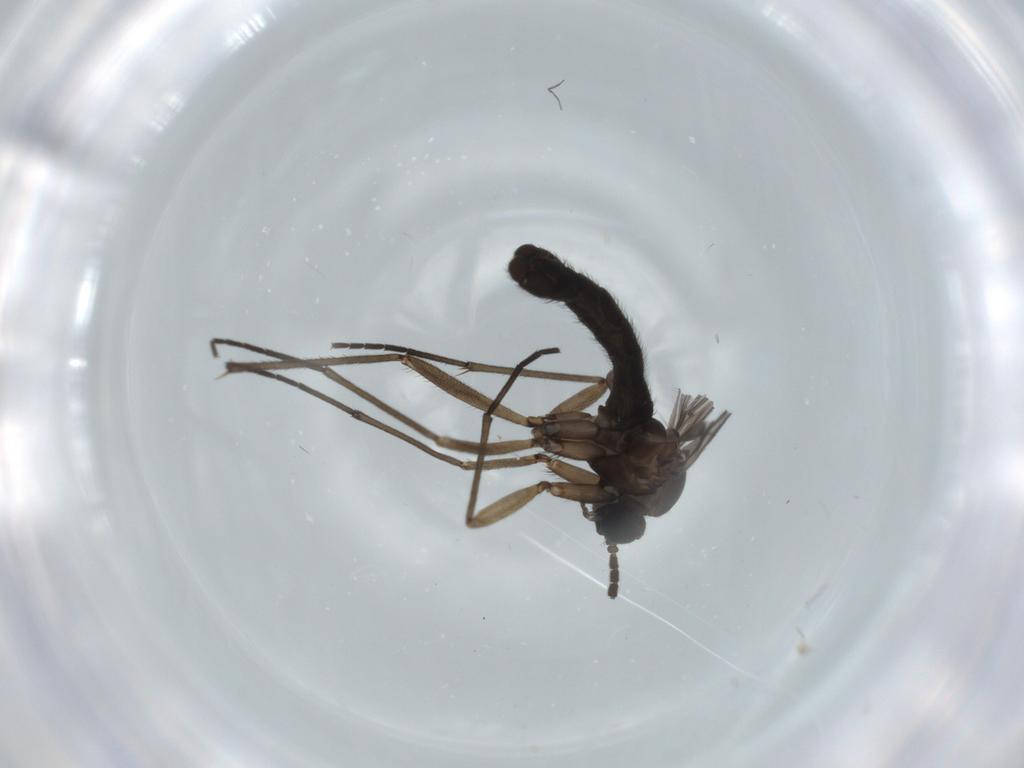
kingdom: Animalia
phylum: Arthropoda
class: Insecta
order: Diptera
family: Sciaridae
